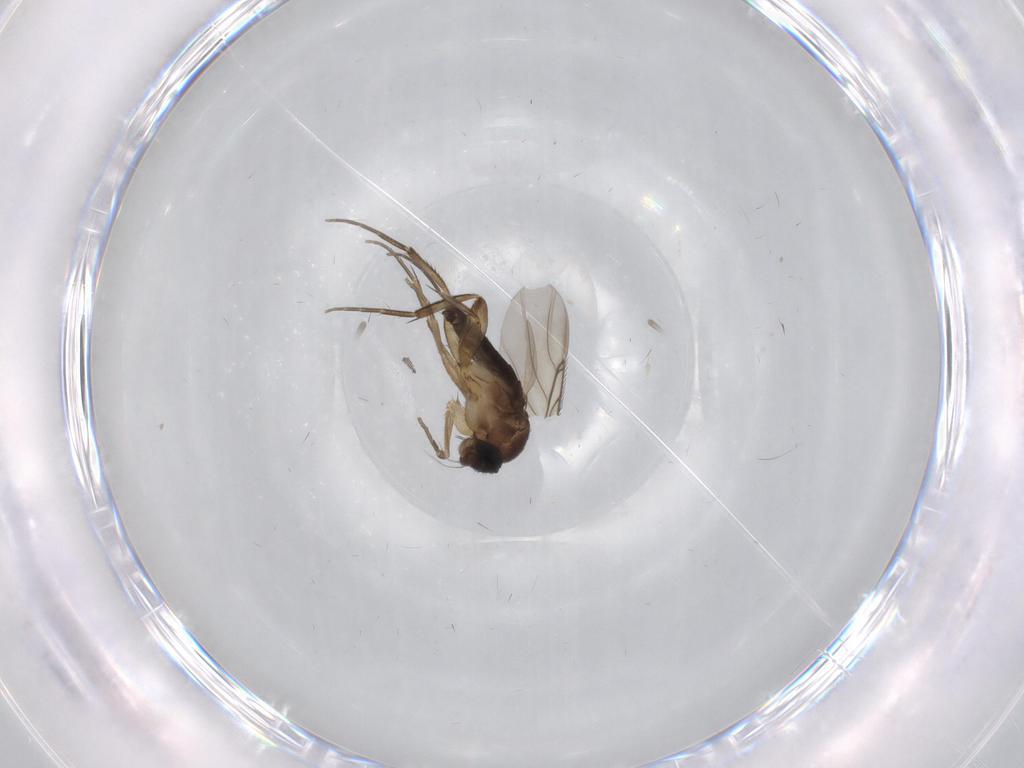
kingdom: Animalia
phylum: Arthropoda
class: Insecta
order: Diptera
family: Phoridae
